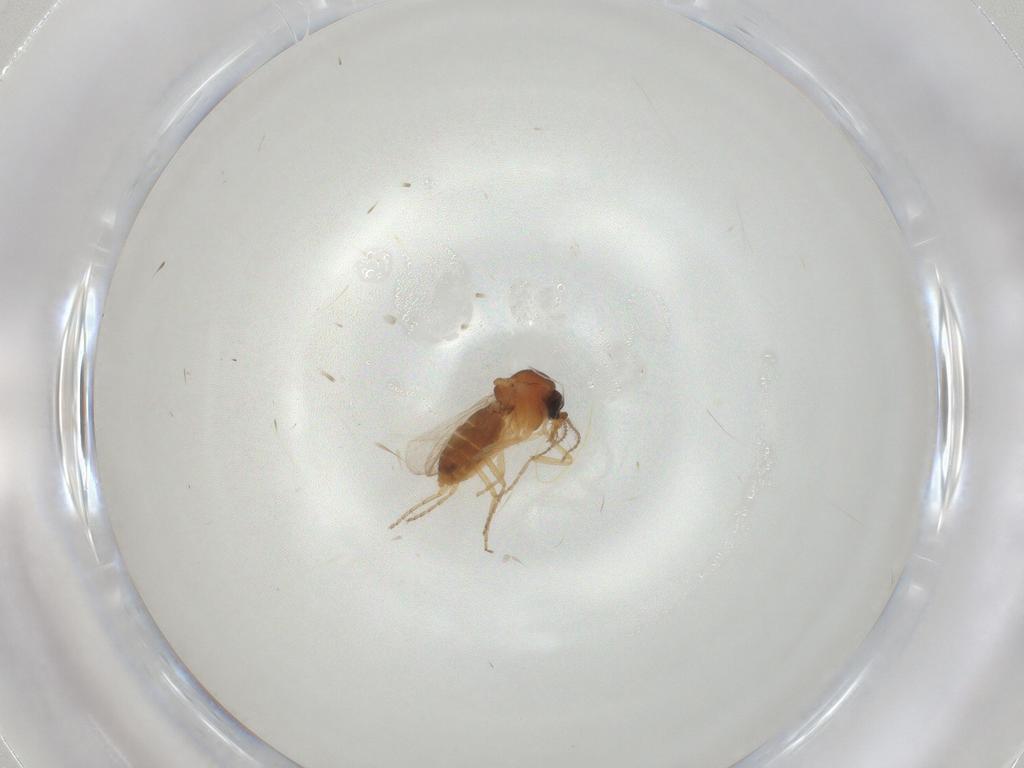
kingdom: Animalia
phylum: Arthropoda
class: Insecta
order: Diptera
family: Ceratopogonidae
